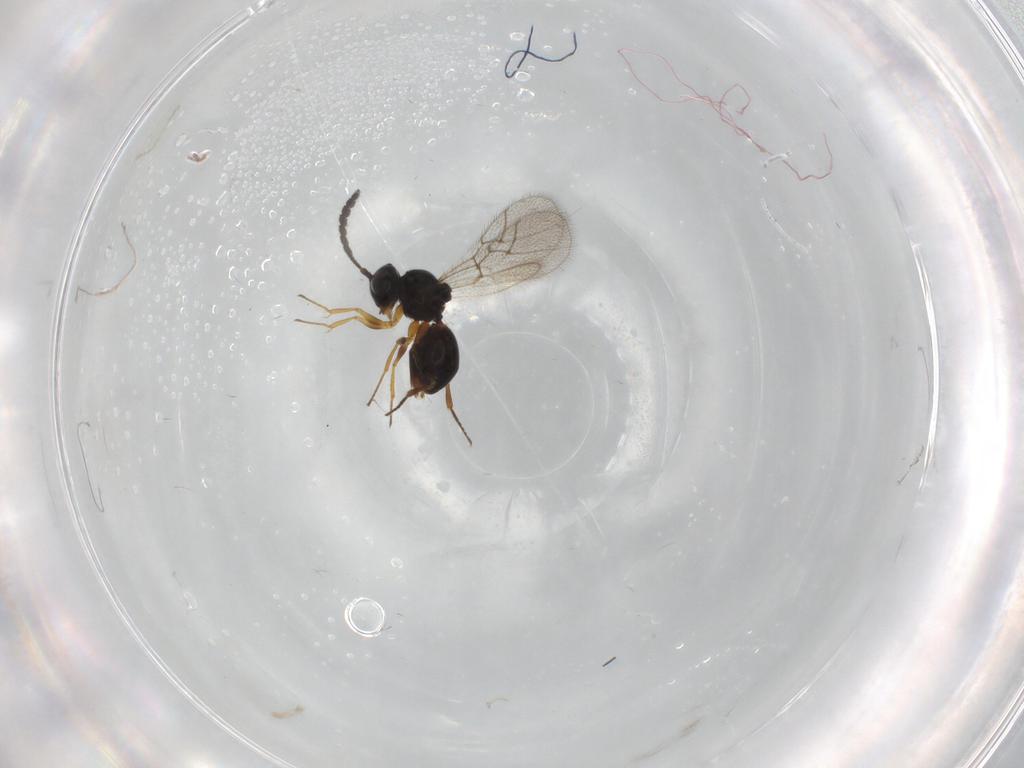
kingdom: Animalia
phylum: Arthropoda
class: Insecta
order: Hymenoptera
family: Figitidae
